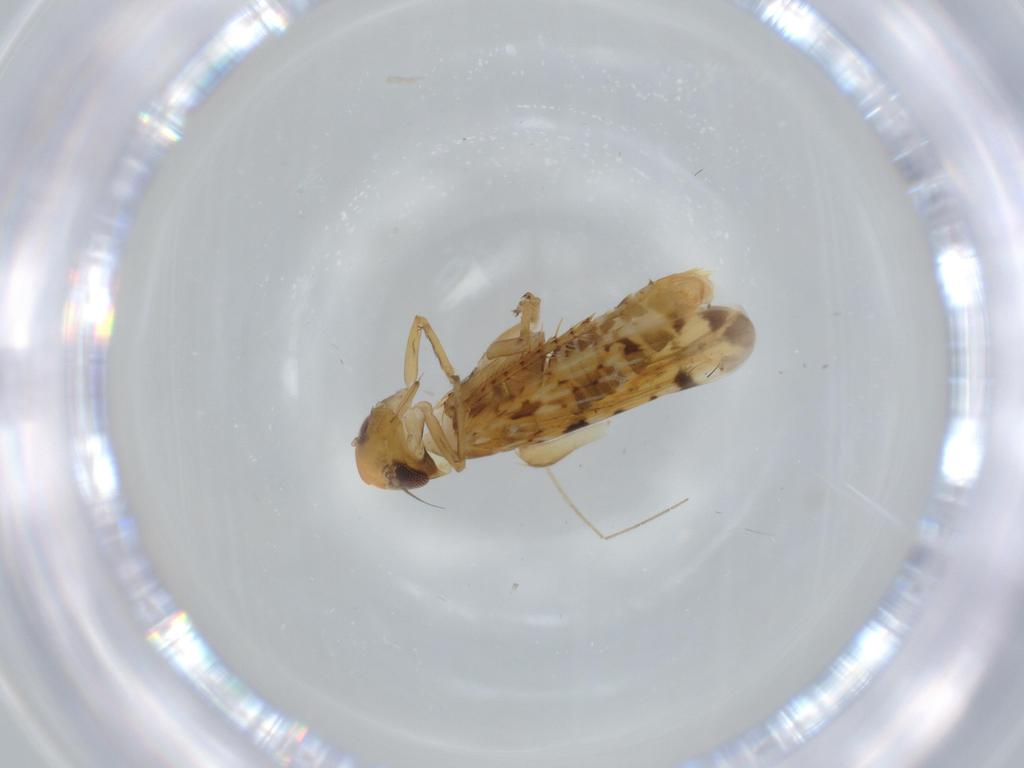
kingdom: Animalia
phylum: Arthropoda
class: Insecta
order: Hemiptera
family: Cicadellidae
